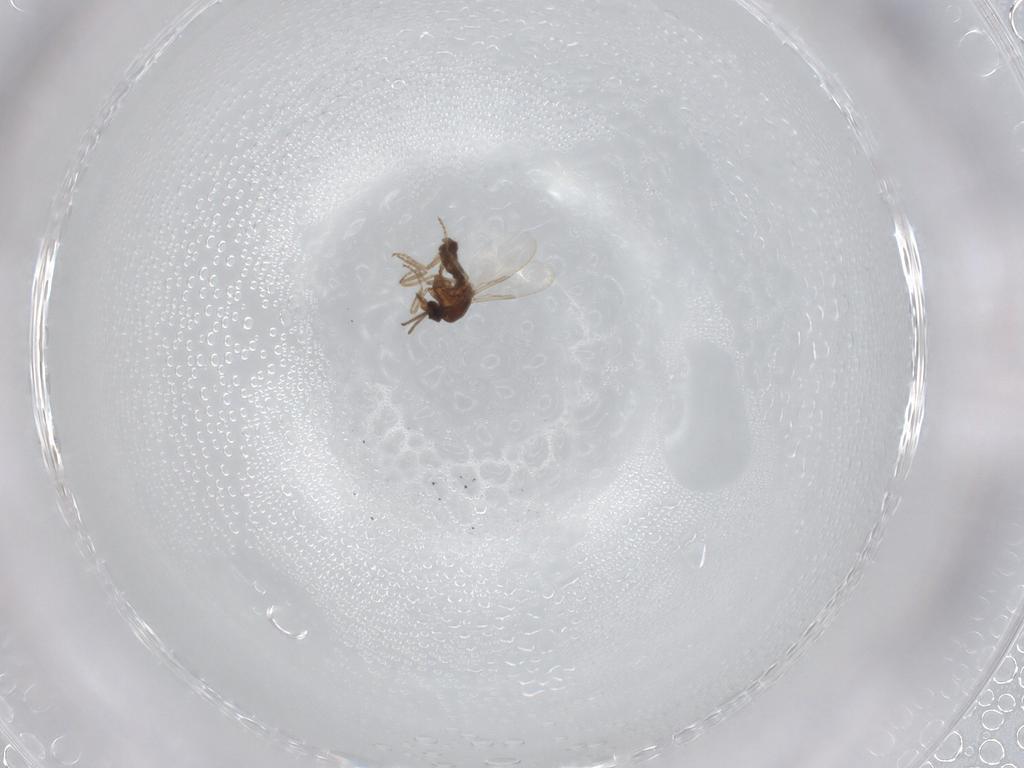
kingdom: Animalia
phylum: Arthropoda
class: Insecta
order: Diptera
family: Ceratopogonidae
